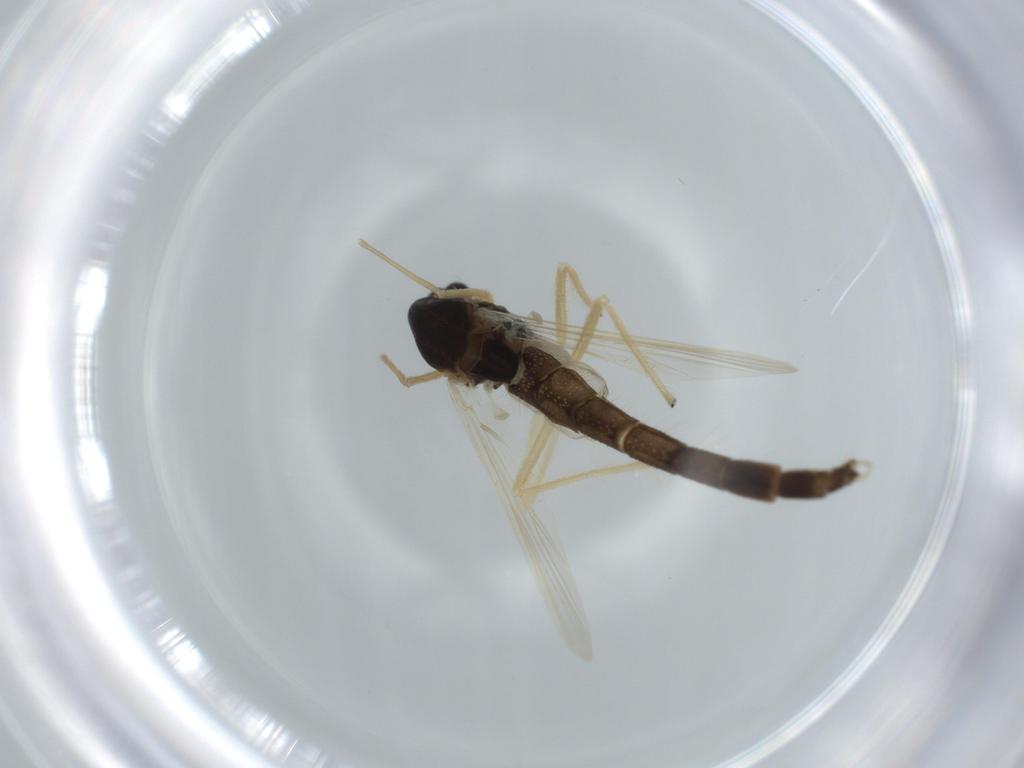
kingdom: Animalia
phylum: Arthropoda
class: Insecta
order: Diptera
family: Chironomidae
